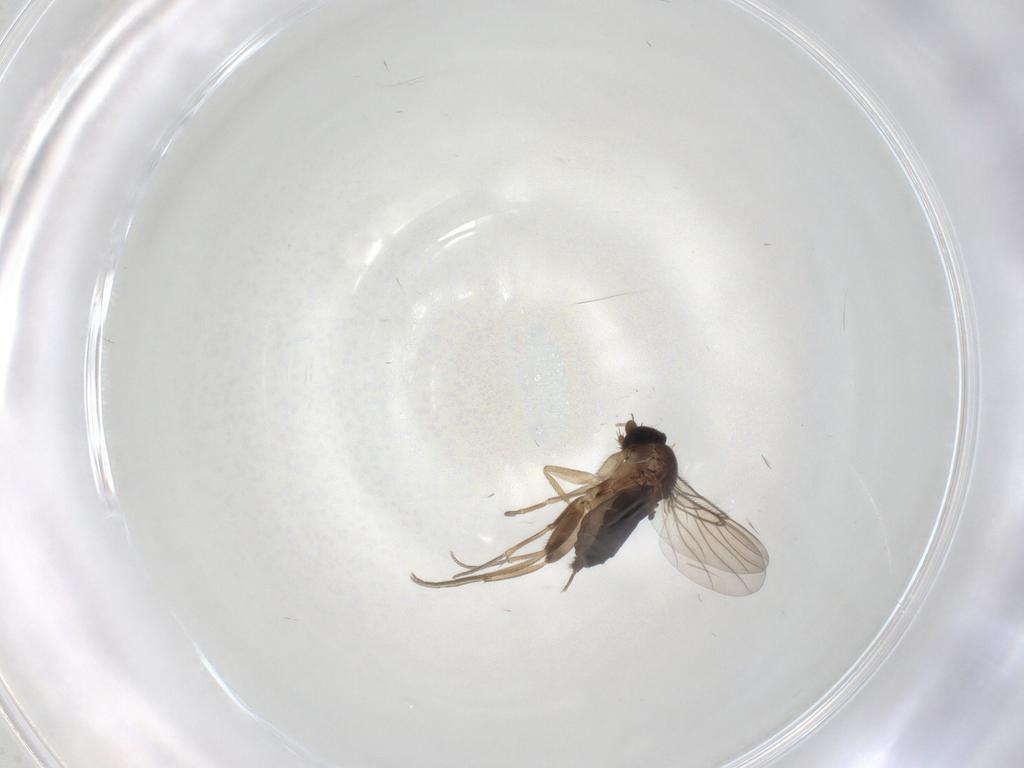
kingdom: Animalia
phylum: Arthropoda
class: Insecta
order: Diptera
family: Phoridae
